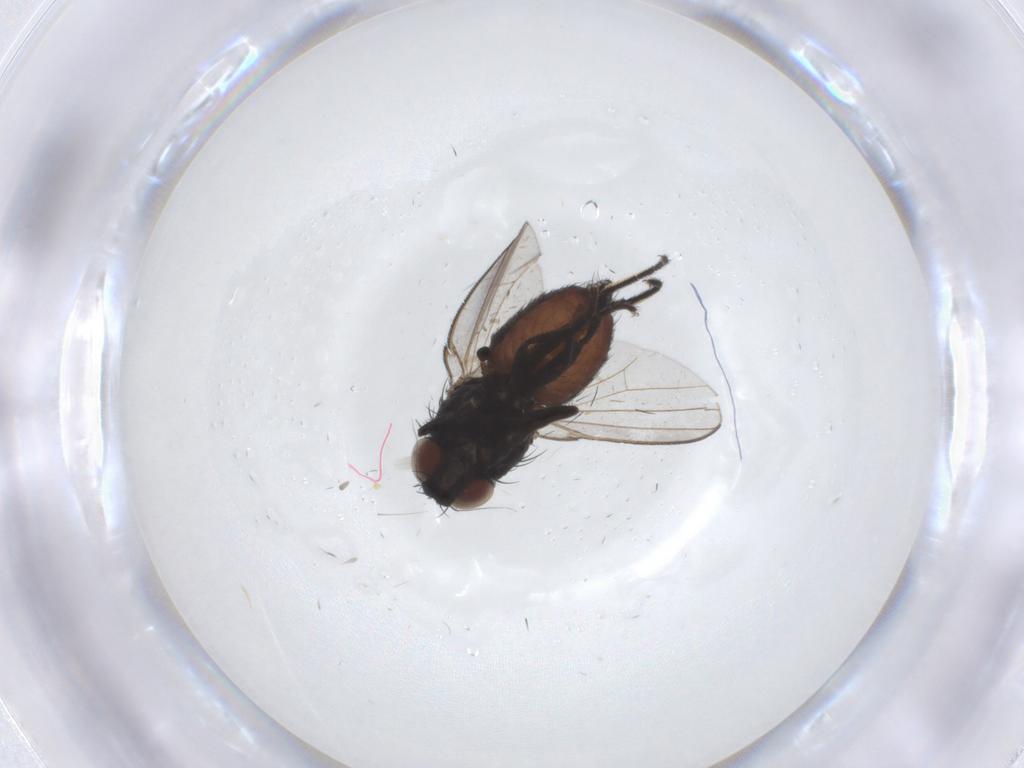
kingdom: Animalia
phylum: Arthropoda
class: Insecta
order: Diptera
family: Milichiidae
